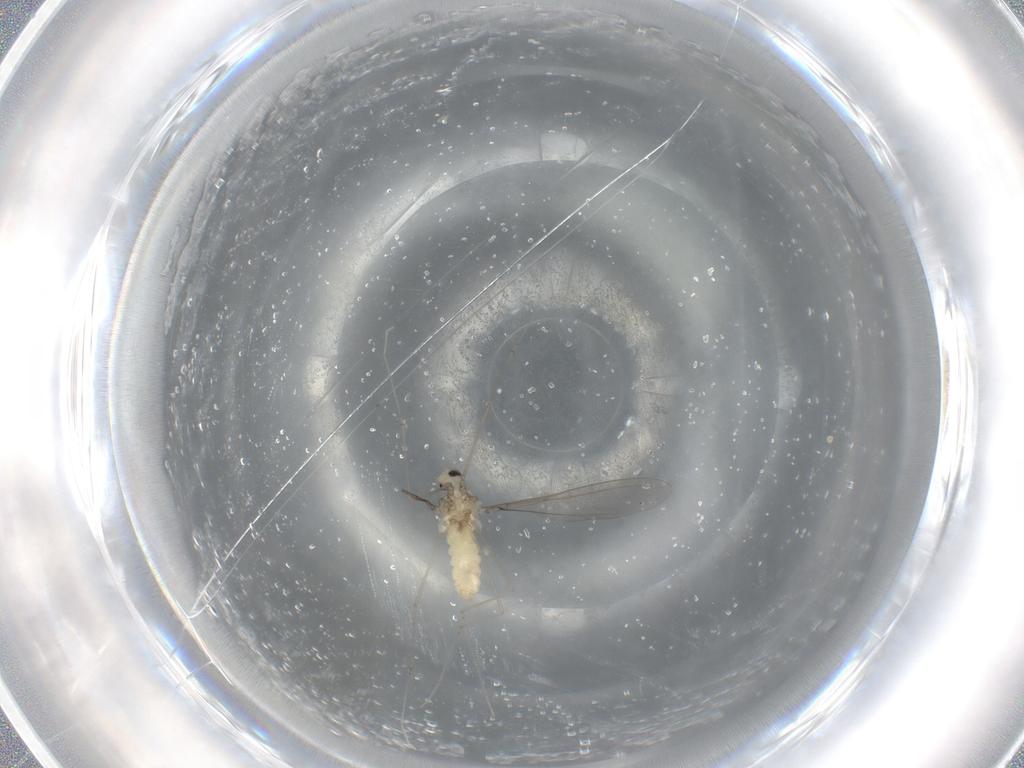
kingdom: Animalia
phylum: Arthropoda
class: Insecta
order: Diptera
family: Cecidomyiidae
